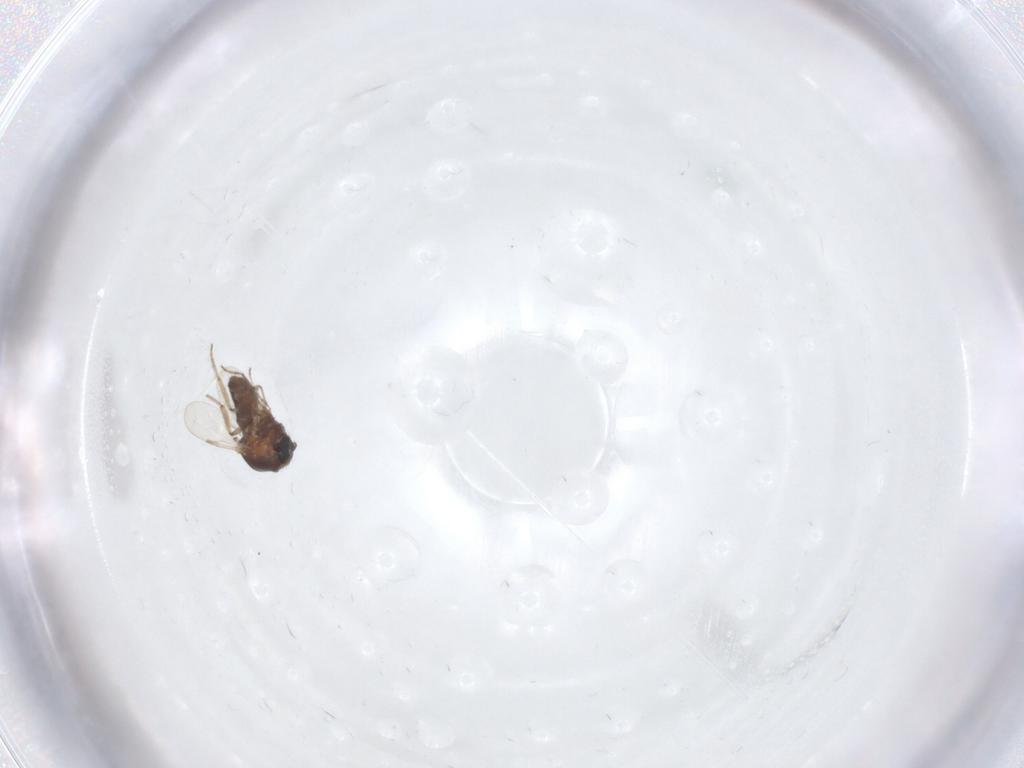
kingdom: Animalia
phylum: Arthropoda
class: Insecta
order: Diptera
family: Ceratopogonidae
